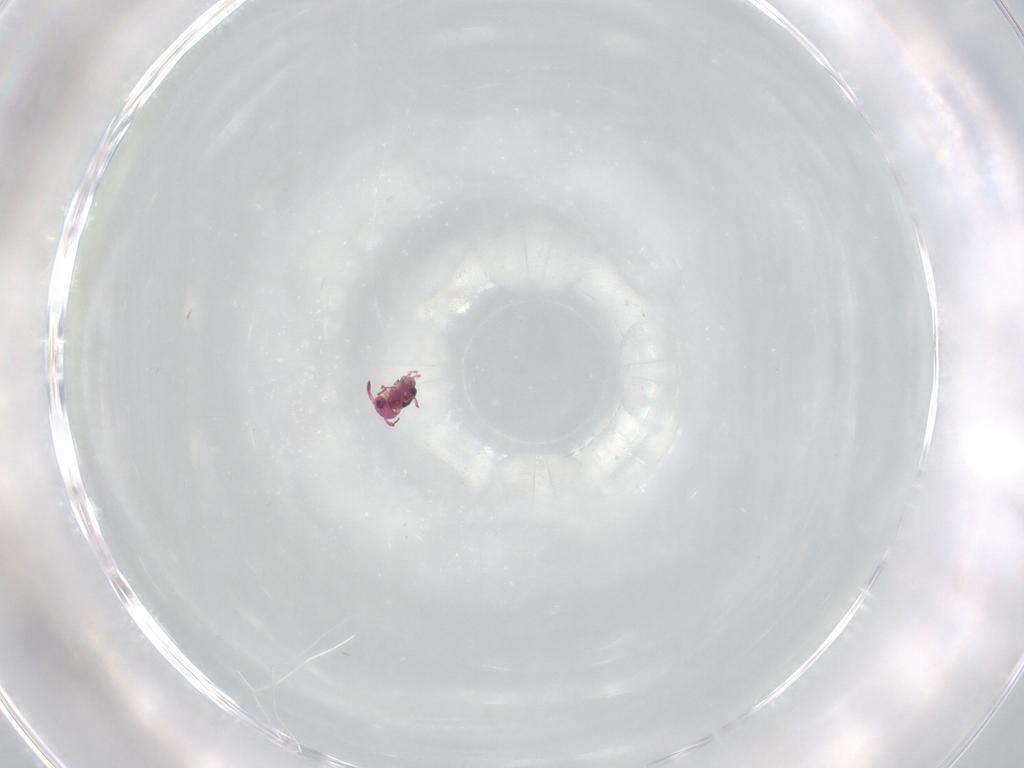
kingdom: Animalia
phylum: Arthropoda
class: Collembola
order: Symphypleona
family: Sminthurididae
